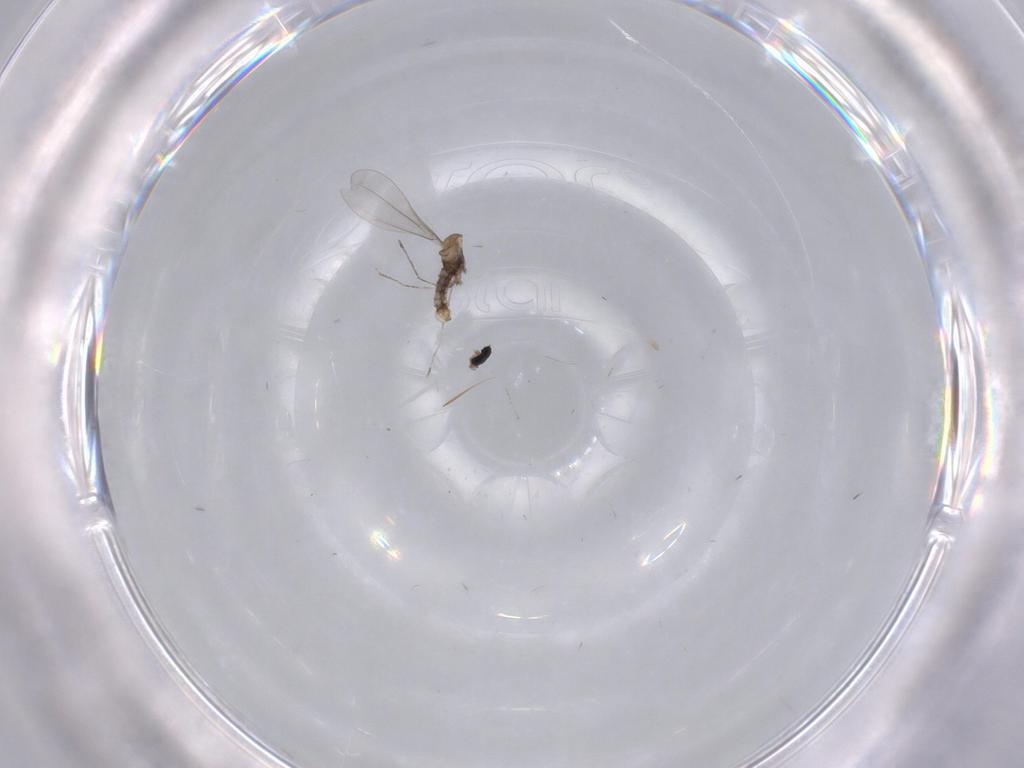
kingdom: Animalia
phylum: Arthropoda
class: Insecta
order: Diptera
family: Cecidomyiidae
